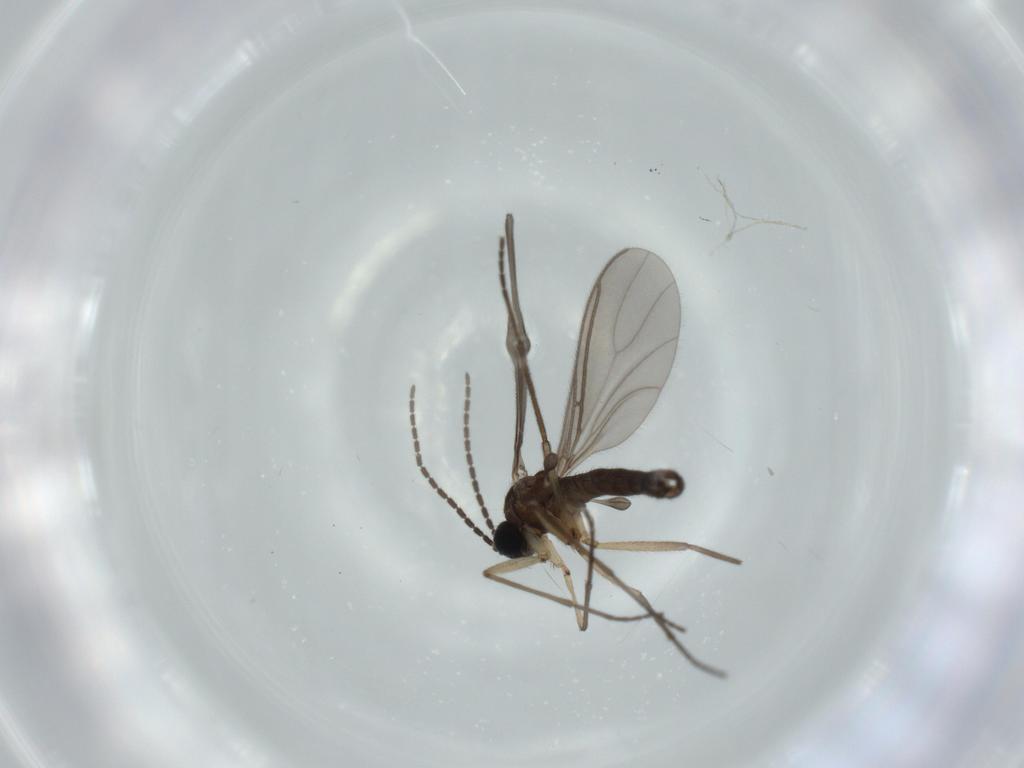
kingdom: Animalia
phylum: Arthropoda
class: Insecta
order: Diptera
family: Sciaridae
